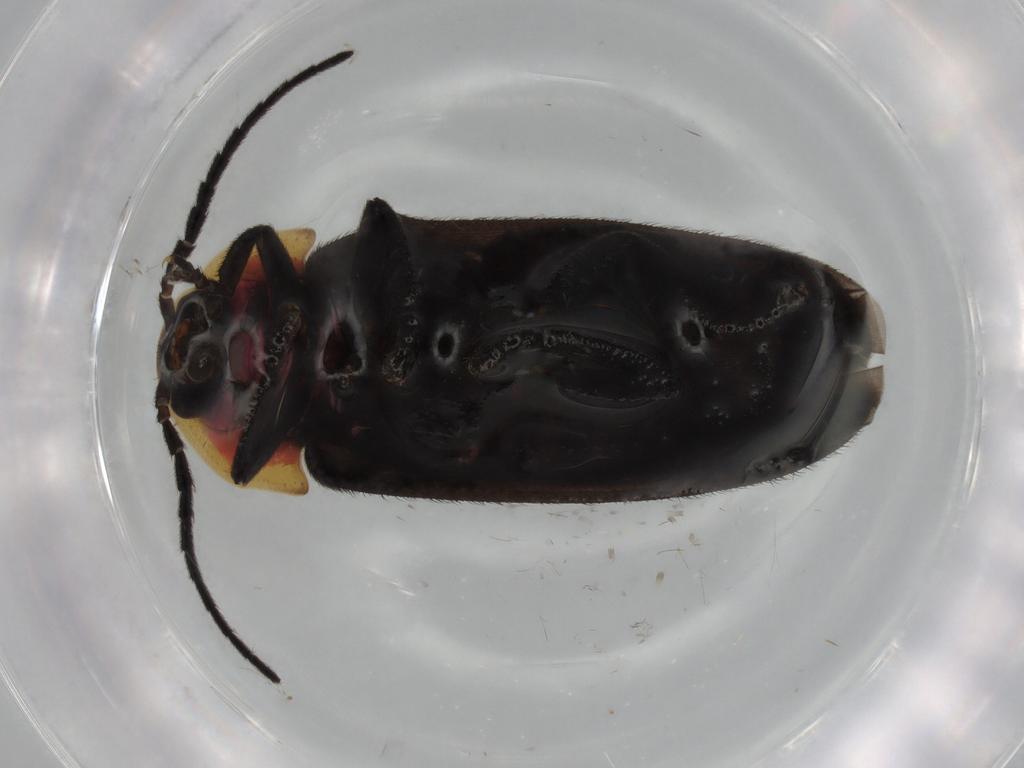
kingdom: Animalia
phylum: Arthropoda
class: Insecta
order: Coleoptera
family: Lampyridae
